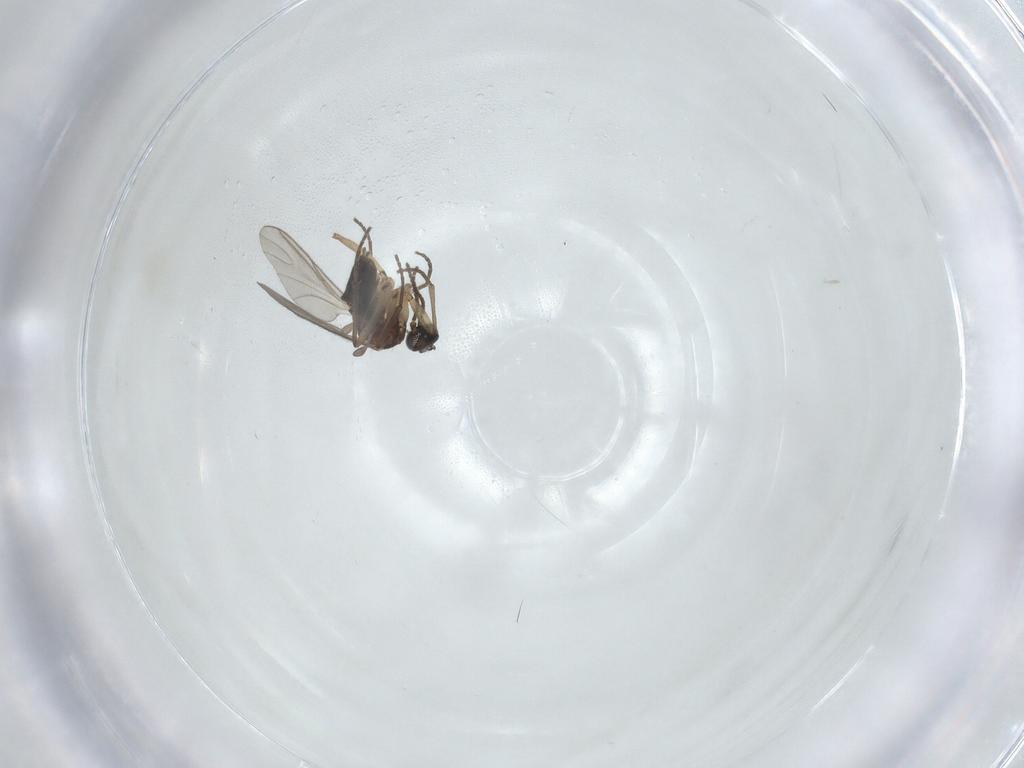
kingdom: Animalia
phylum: Arthropoda
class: Insecta
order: Diptera
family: Sciaridae
